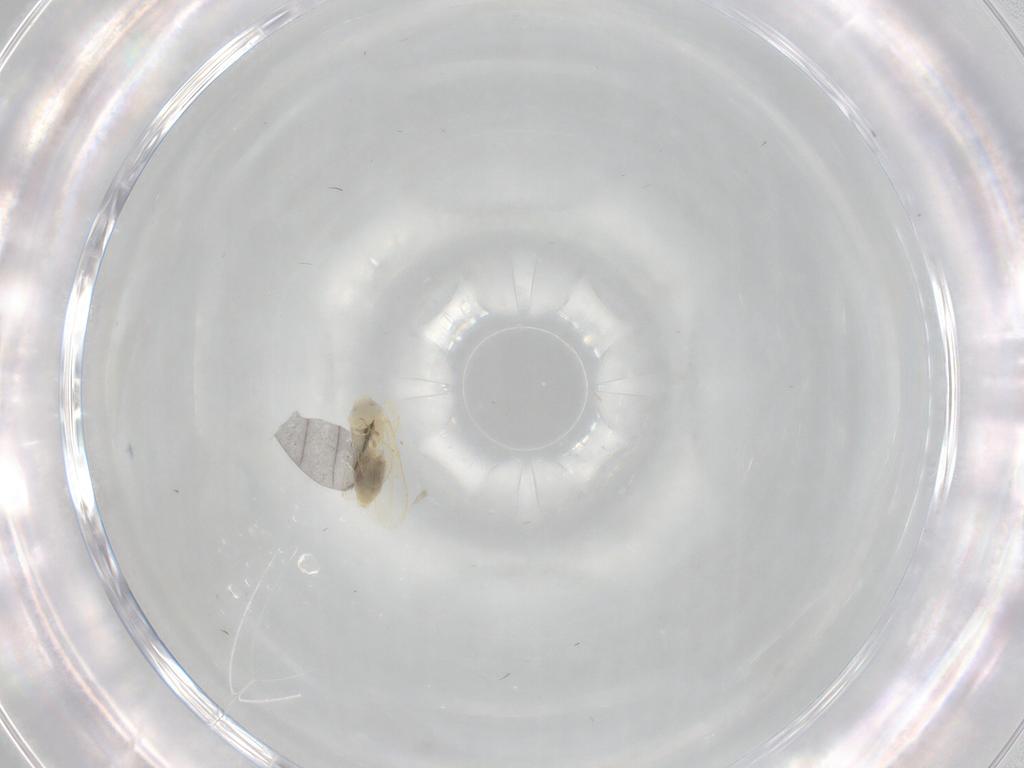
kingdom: Animalia
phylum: Arthropoda
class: Insecta
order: Hemiptera
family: Aleyrodidae
